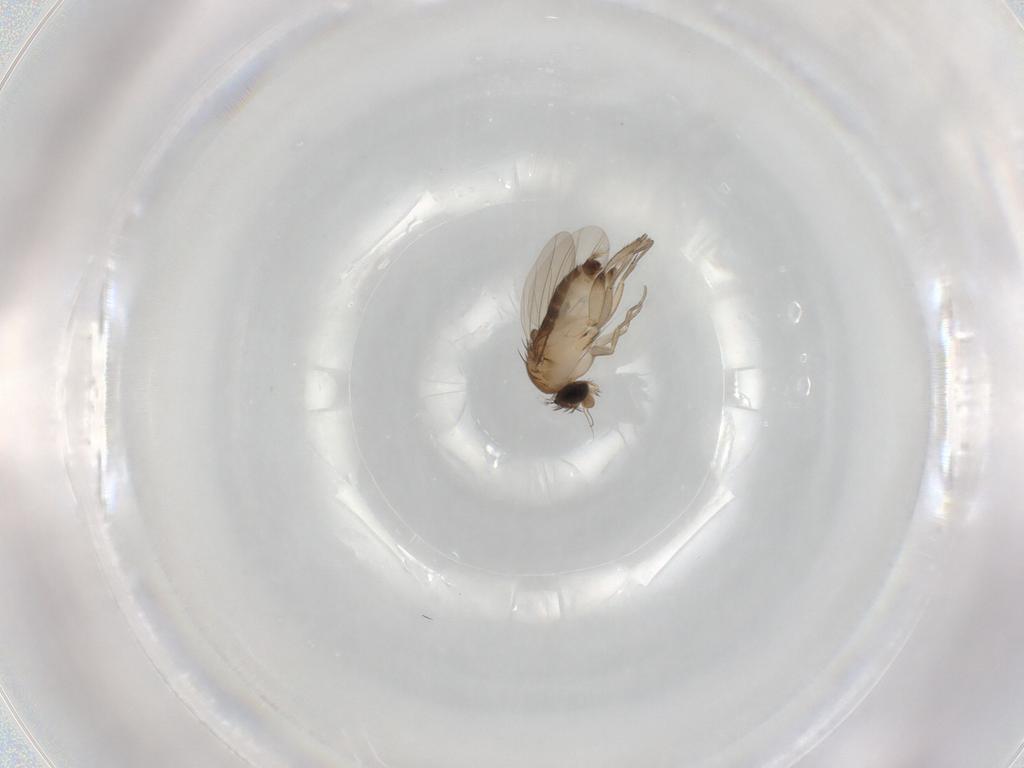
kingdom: Animalia
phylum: Arthropoda
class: Insecta
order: Diptera
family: Phoridae
